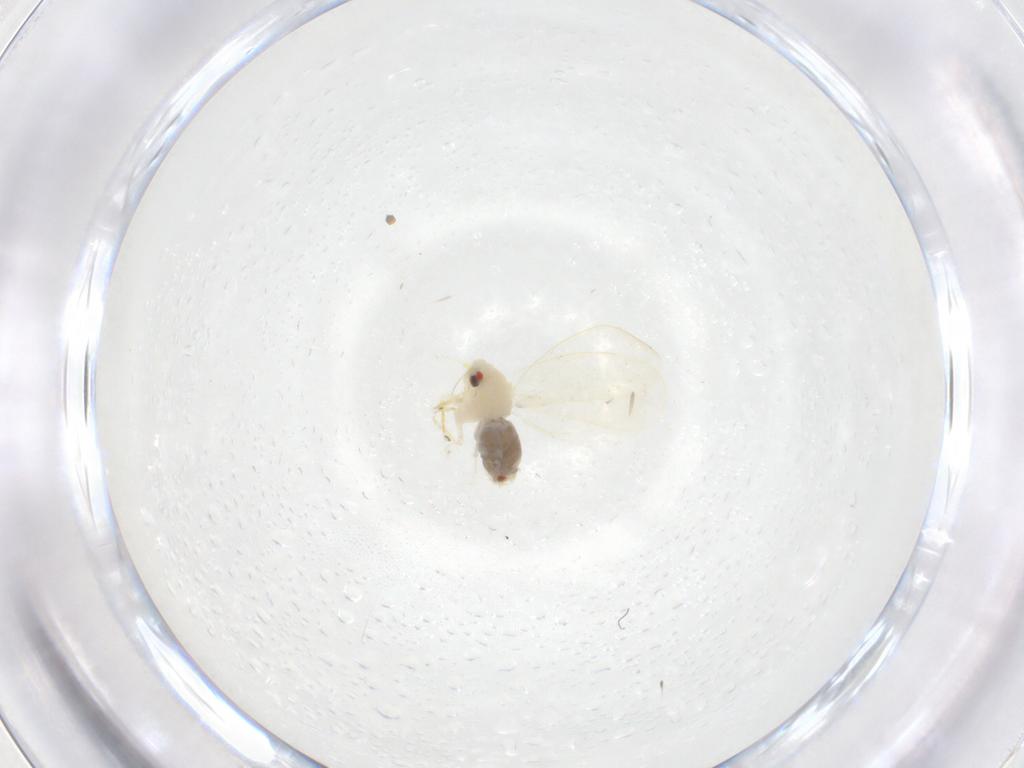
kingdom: Animalia
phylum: Arthropoda
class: Insecta
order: Hemiptera
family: Aleyrodidae
